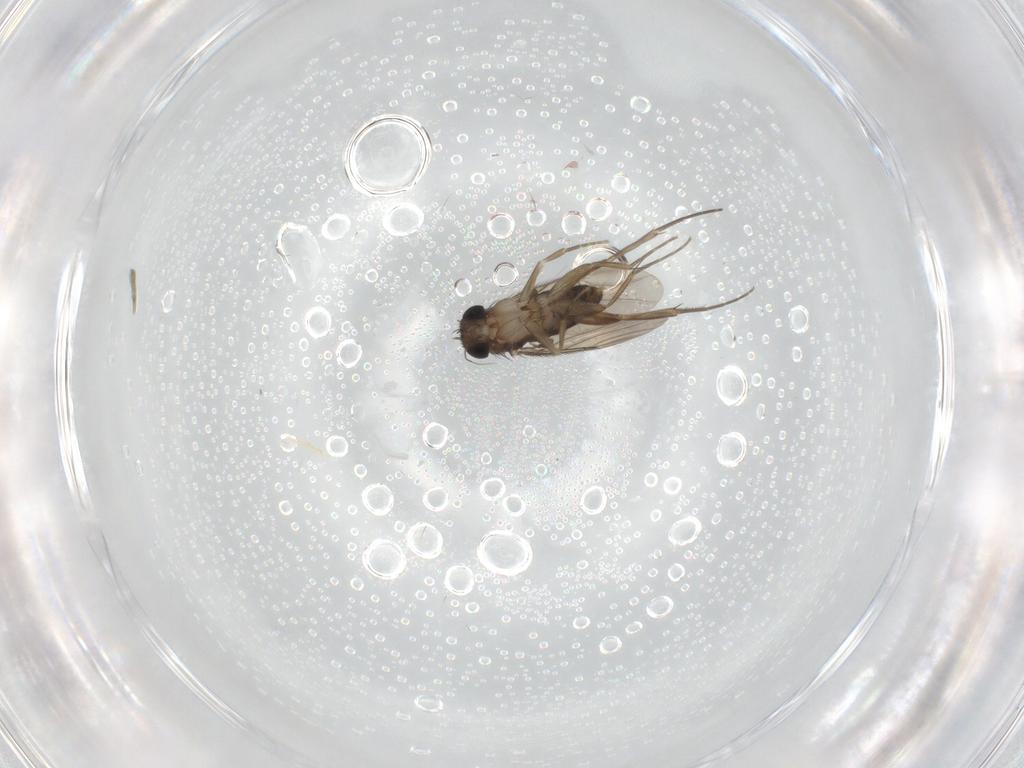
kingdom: Animalia
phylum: Arthropoda
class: Insecta
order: Diptera
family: Phoridae
